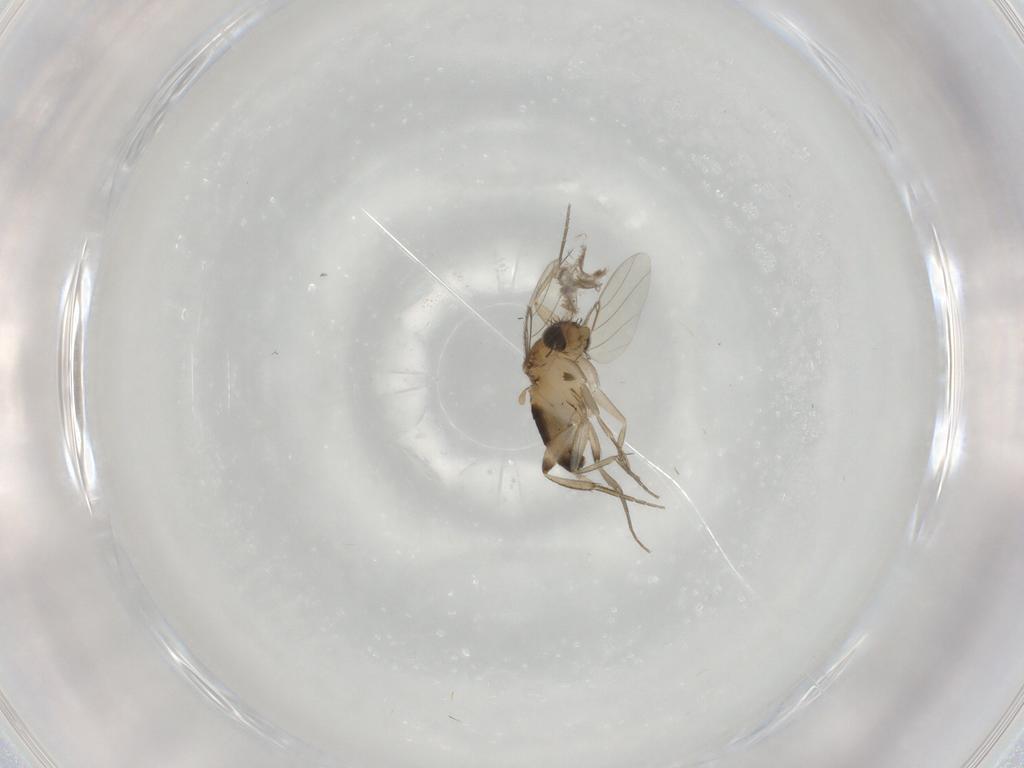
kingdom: Animalia
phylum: Arthropoda
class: Insecta
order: Diptera
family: Phoridae
